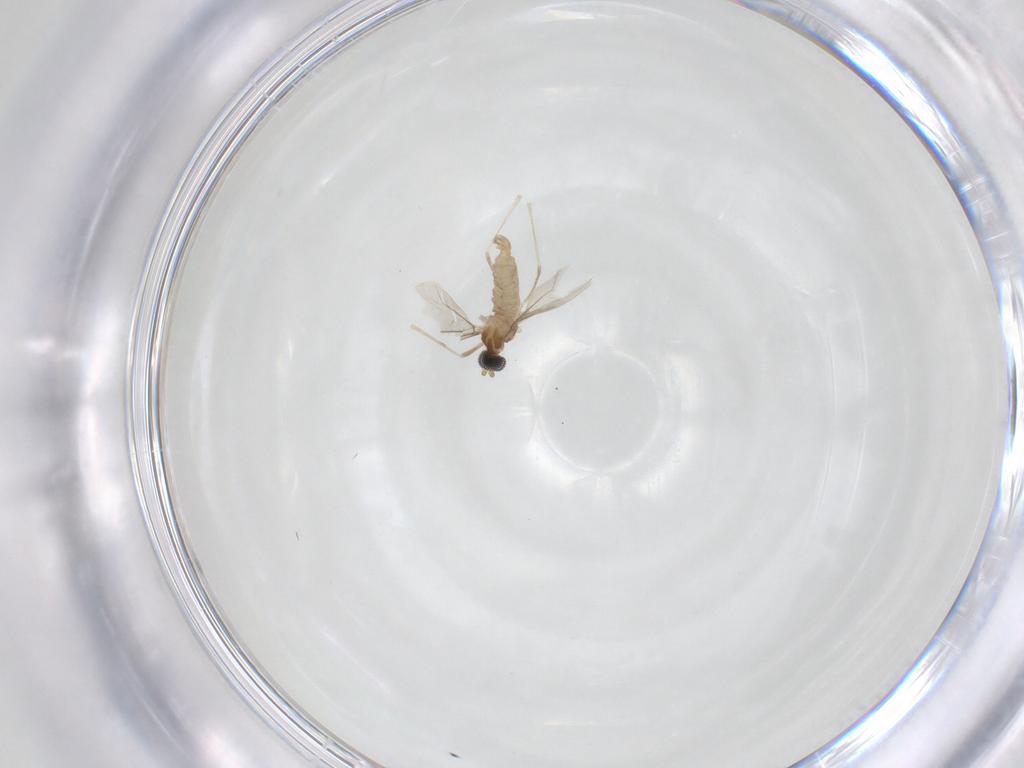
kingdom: Animalia
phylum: Arthropoda
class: Insecta
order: Diptera
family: Cecidomyiidae
